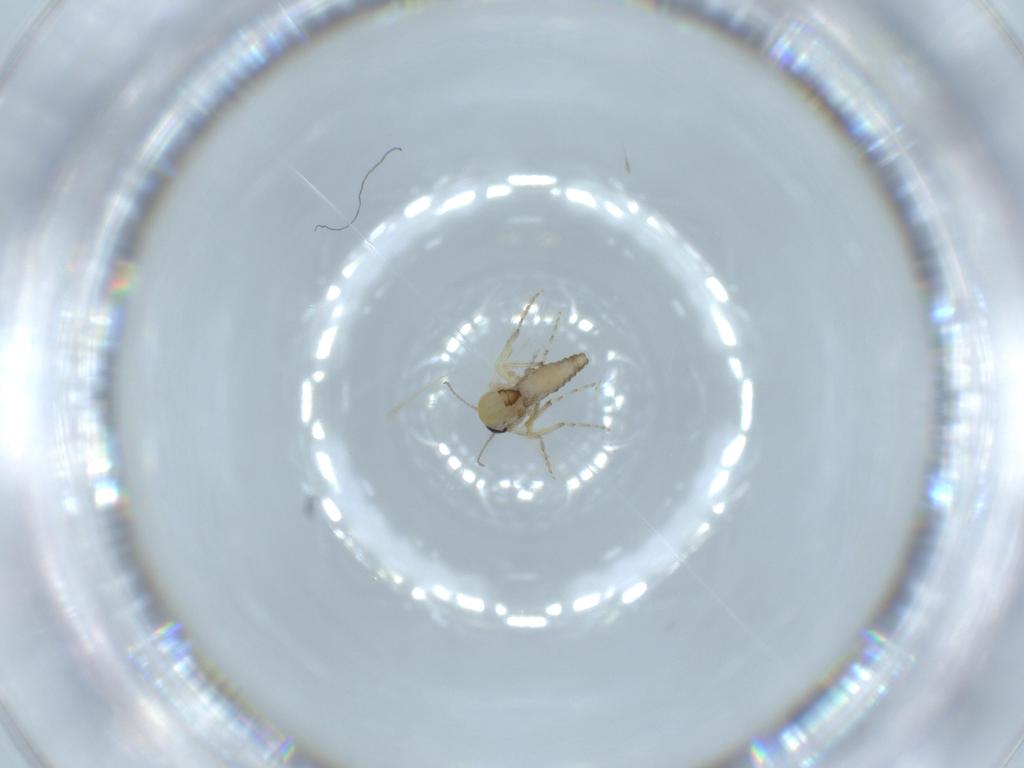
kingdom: Animalia
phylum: Arthropoda
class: Insecta
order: Diptera
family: Ceratopogonidae
